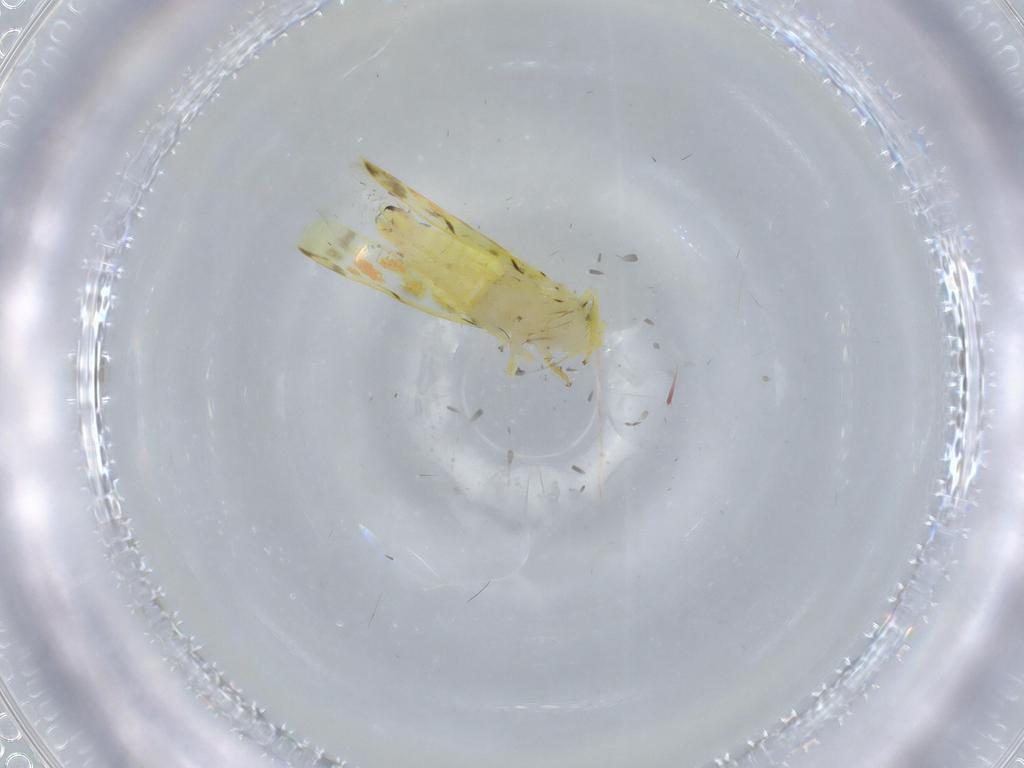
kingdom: Animalia
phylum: Arthropoda
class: Insecta
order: Hemiptera
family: Cicadellidae
